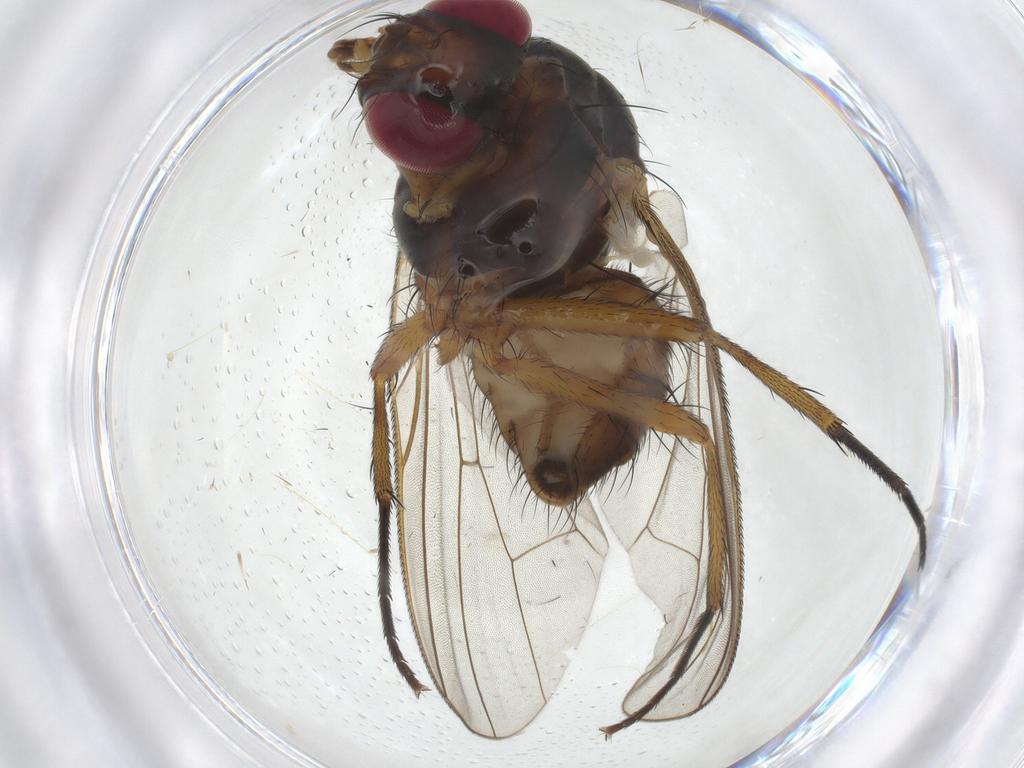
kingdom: Animalia
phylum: Arthropoda
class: Insecta
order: Diptera
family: Anthomyiidae
